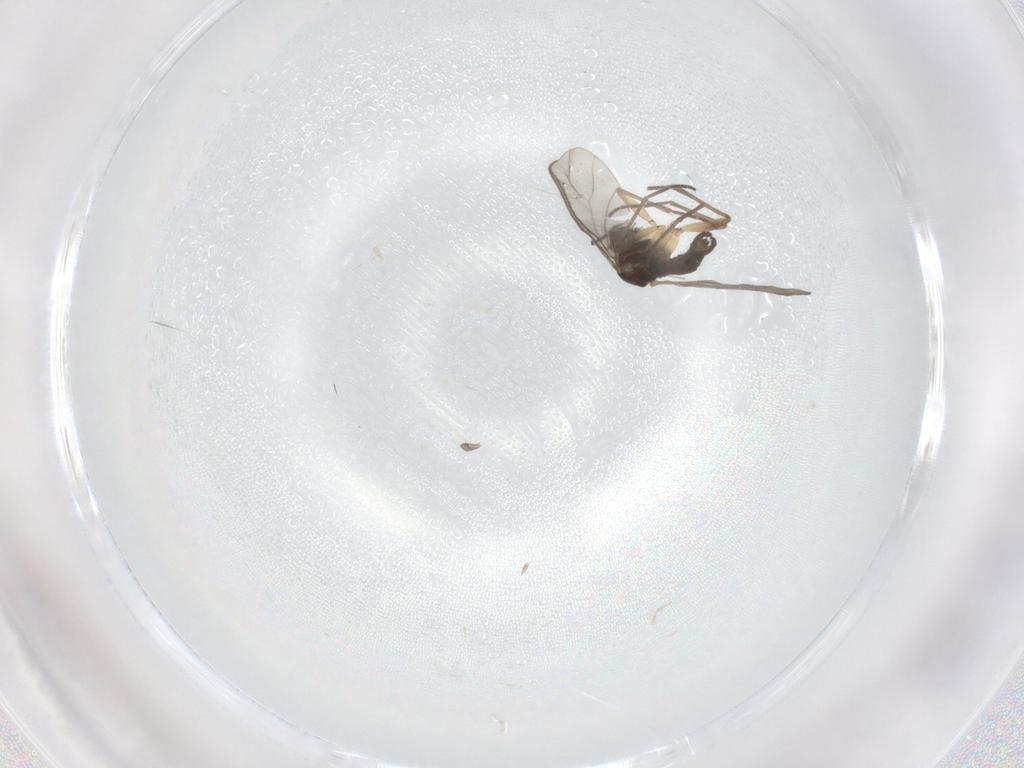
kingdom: Animalia
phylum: Arthropoda
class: Insecta
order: Diptera
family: Sciaridae
